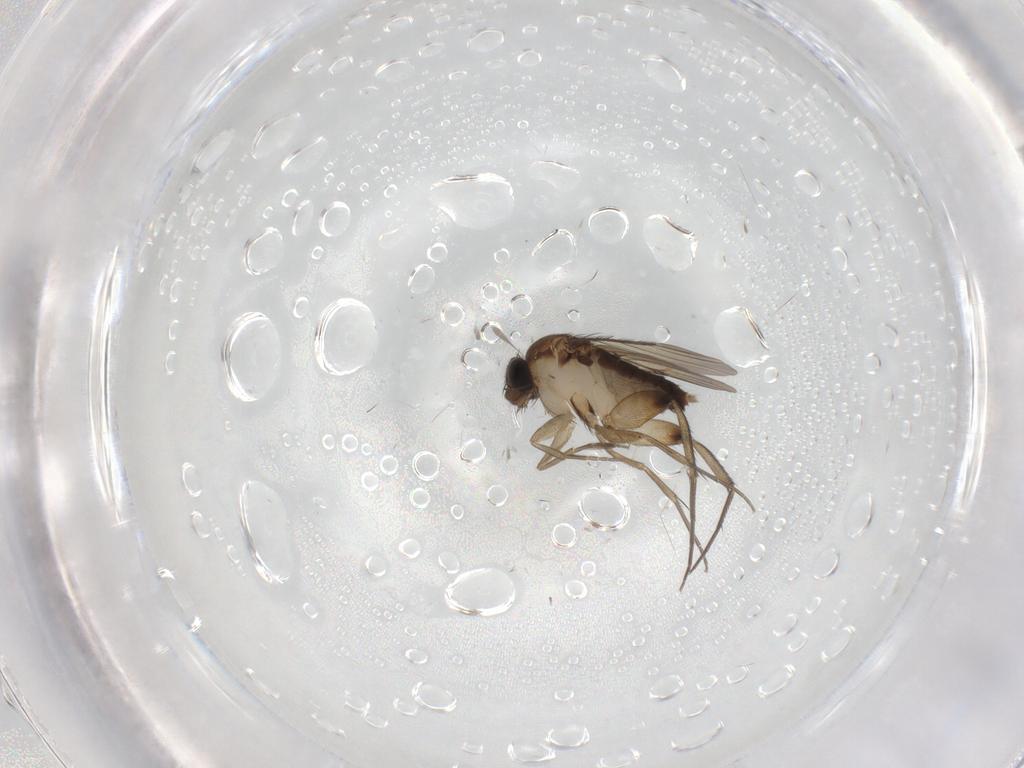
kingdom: Animalia
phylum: Arthropoda
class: Insecta
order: Diptera
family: Phoridae
